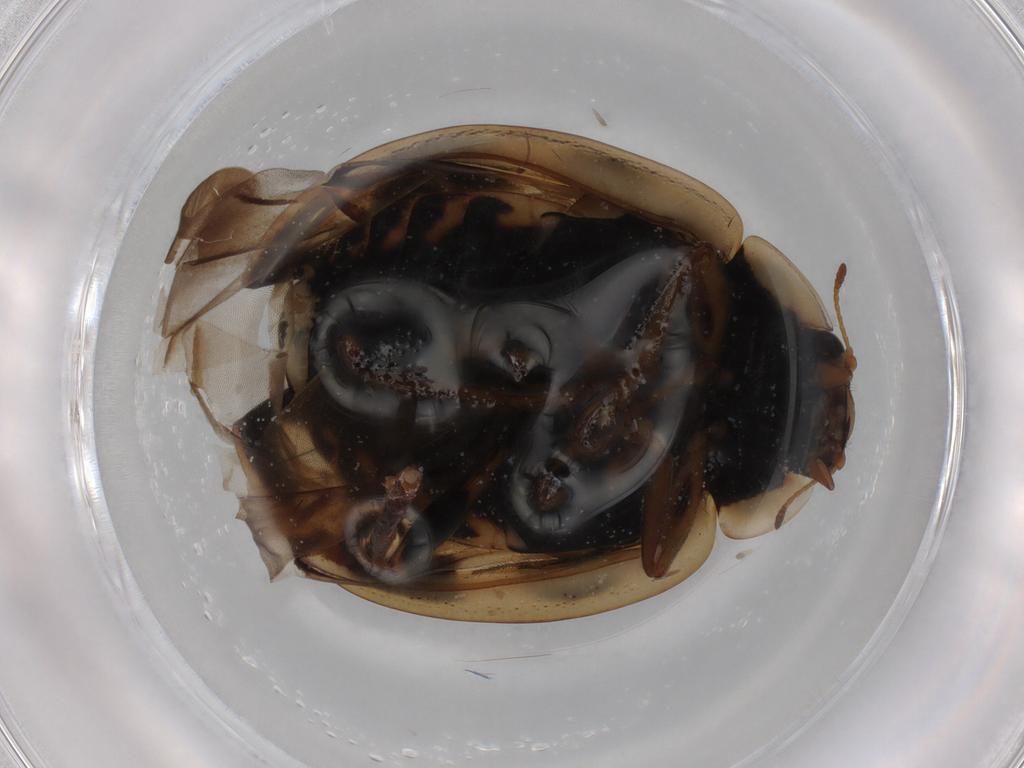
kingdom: Animalia
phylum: Arthropoda
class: Insecta
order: Coleoptera
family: Coccinellidae
